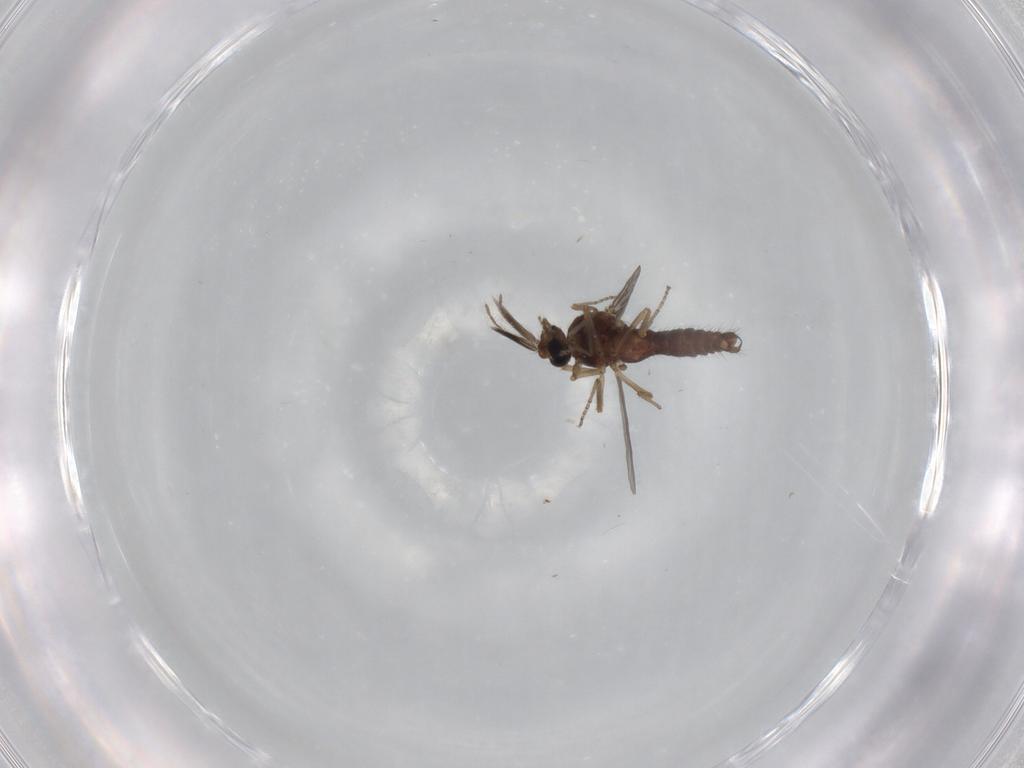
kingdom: Animalia
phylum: Arthropoda
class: Insecta
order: Diptera
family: Ceratopogonidae
